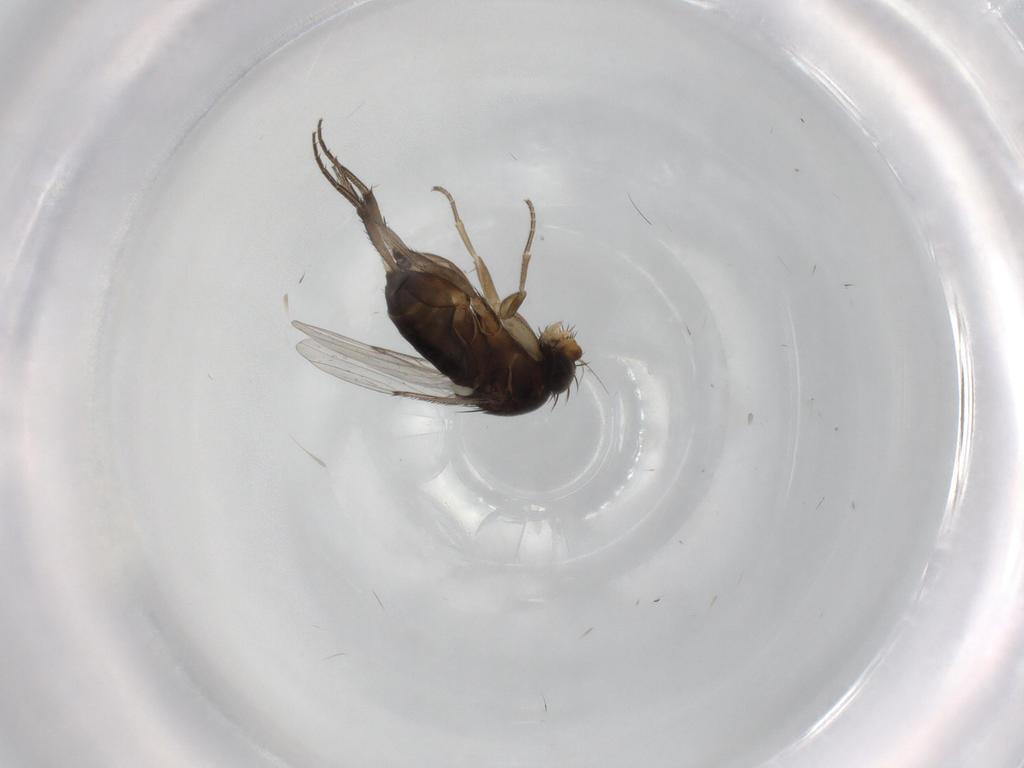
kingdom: Animalia
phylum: Arthropoda
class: Insecta
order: Diptera
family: Phoridae
